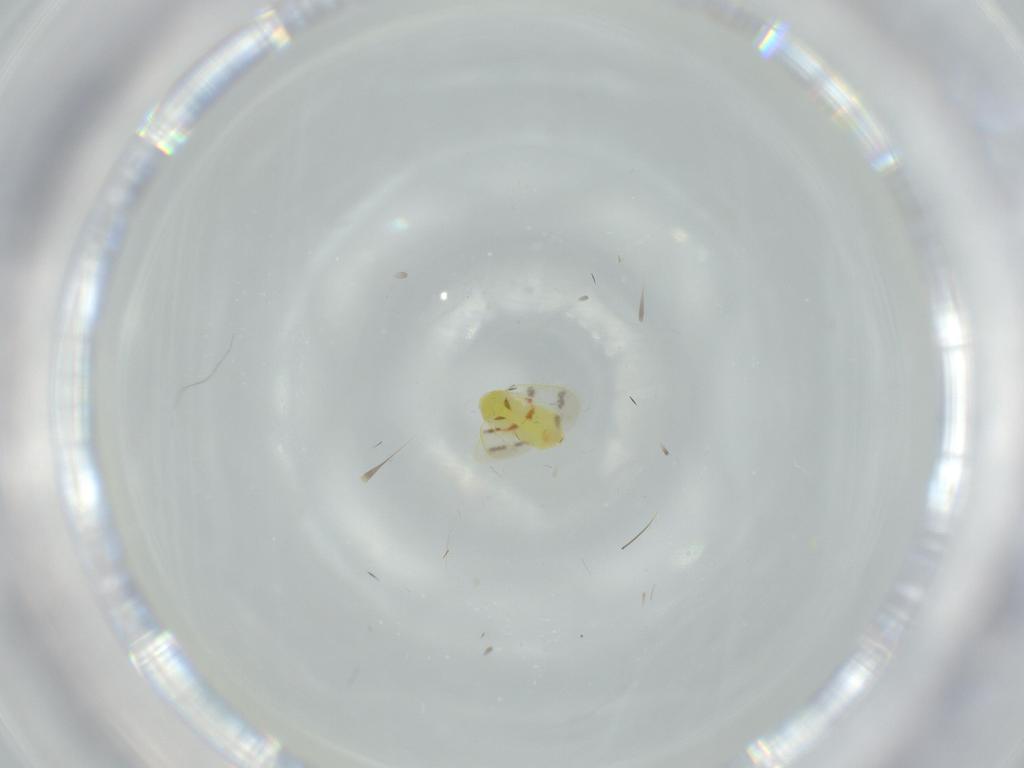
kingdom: Animalia
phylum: Arthropoda
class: Insecta
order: Hemiptera
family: Aleyrodidae
